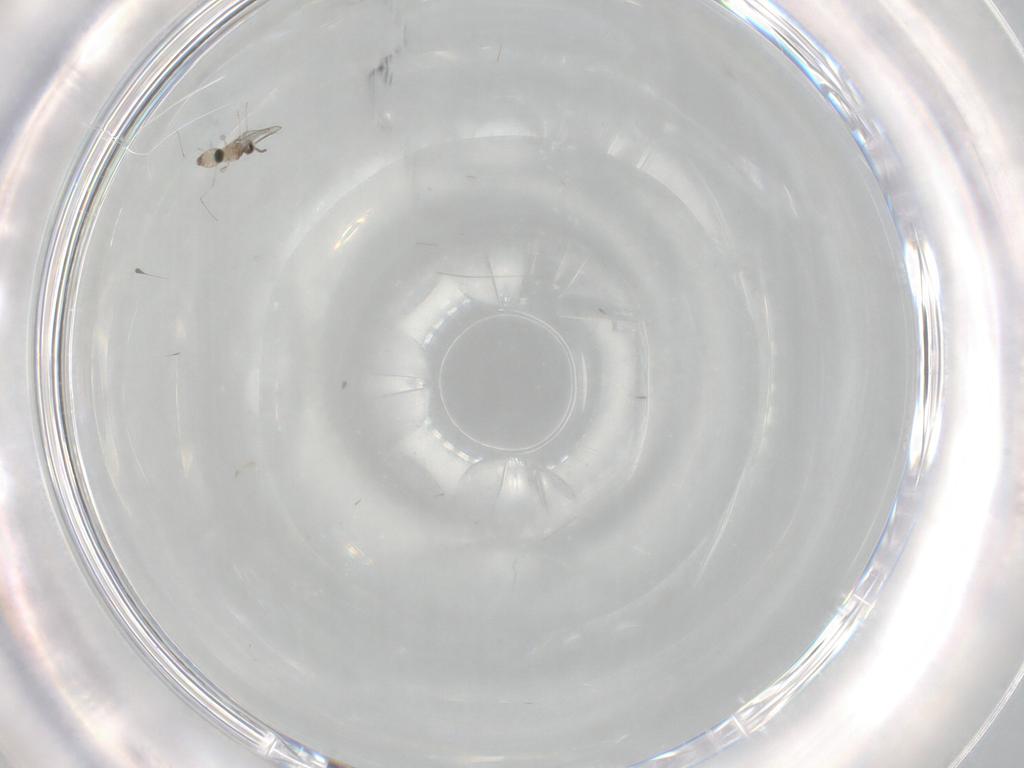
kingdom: Animalia
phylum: Arthropoda
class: Insecta
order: Diptera
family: Cecidomyiidae
